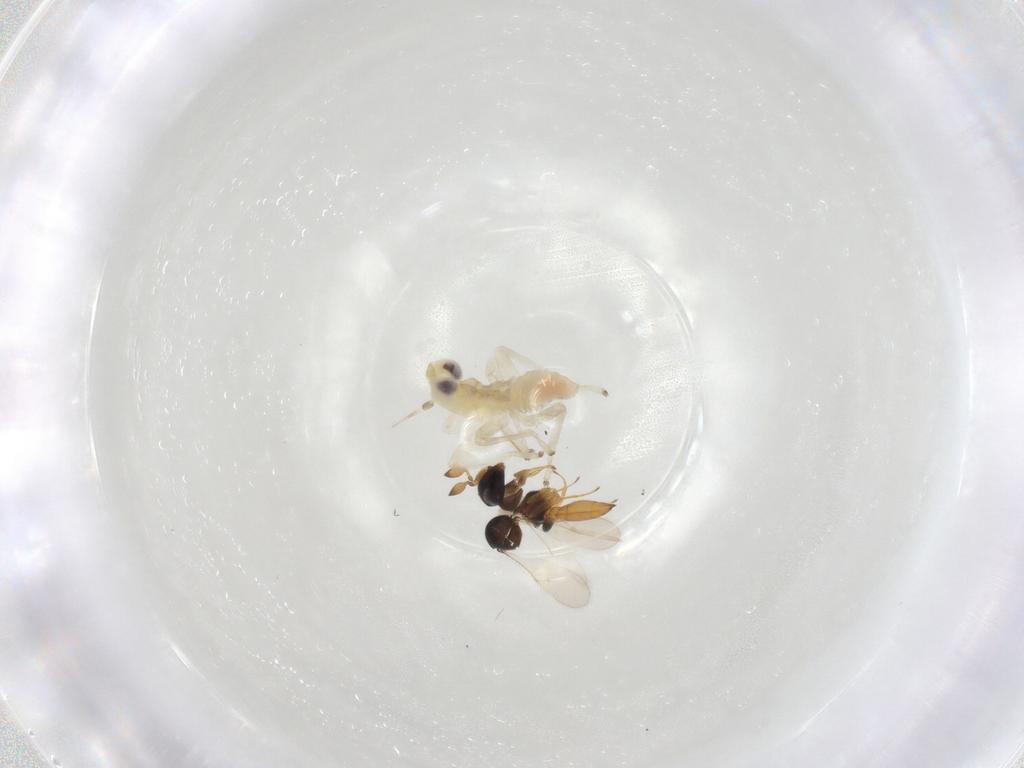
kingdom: Animalia
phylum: Arthropoda
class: Insecta
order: Hymenoptera
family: Scelionidae
